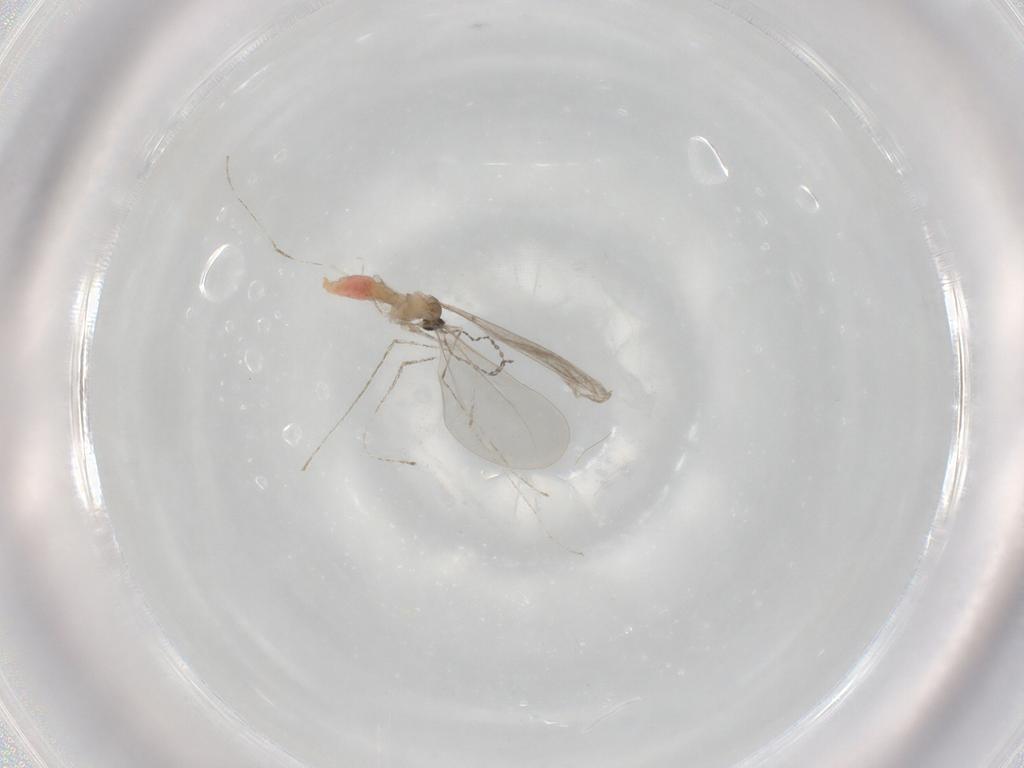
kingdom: Animalia
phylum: Arthropoda
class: Insecta
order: Diptera
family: Cecidomyiidae
